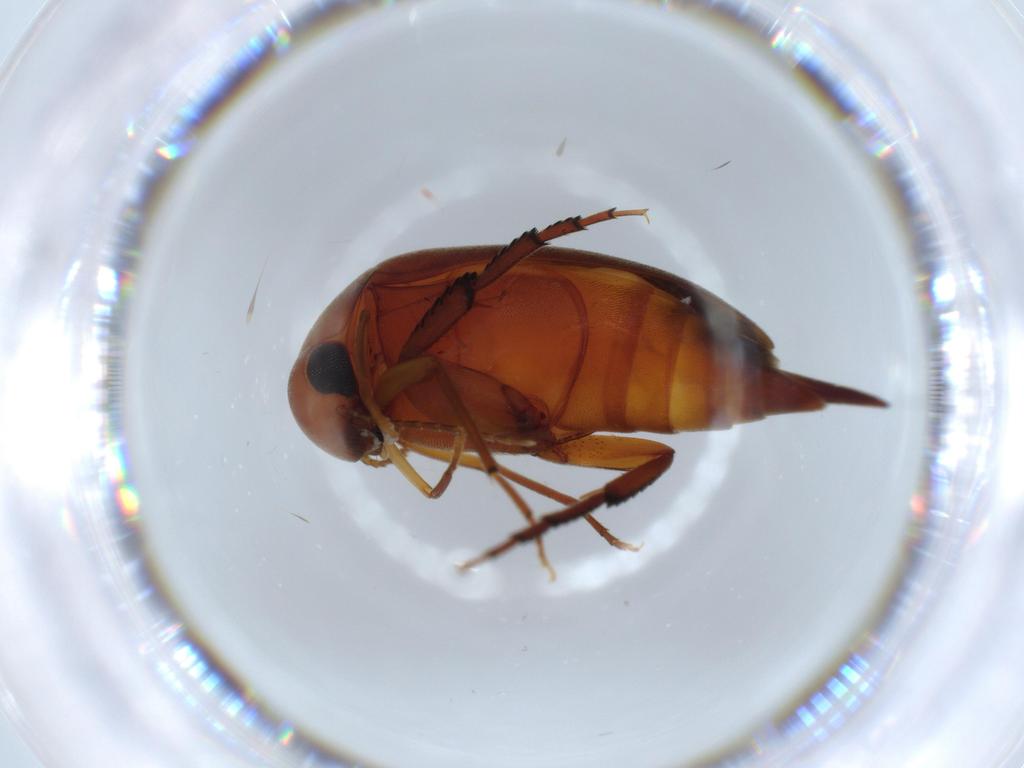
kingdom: Animalia
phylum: Arthropoda
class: Insecta
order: Coleoptera
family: Mordellidae
